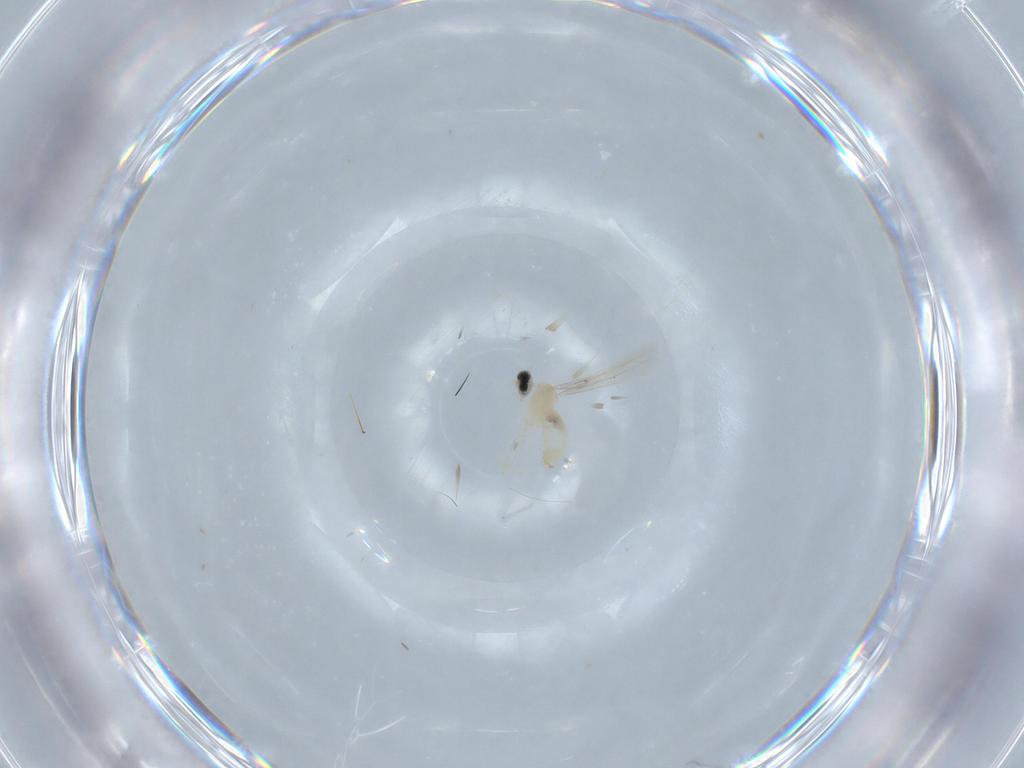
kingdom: Animalia
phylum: Arthropoda
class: Insecta
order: Diptera
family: Cecidomyiidae
